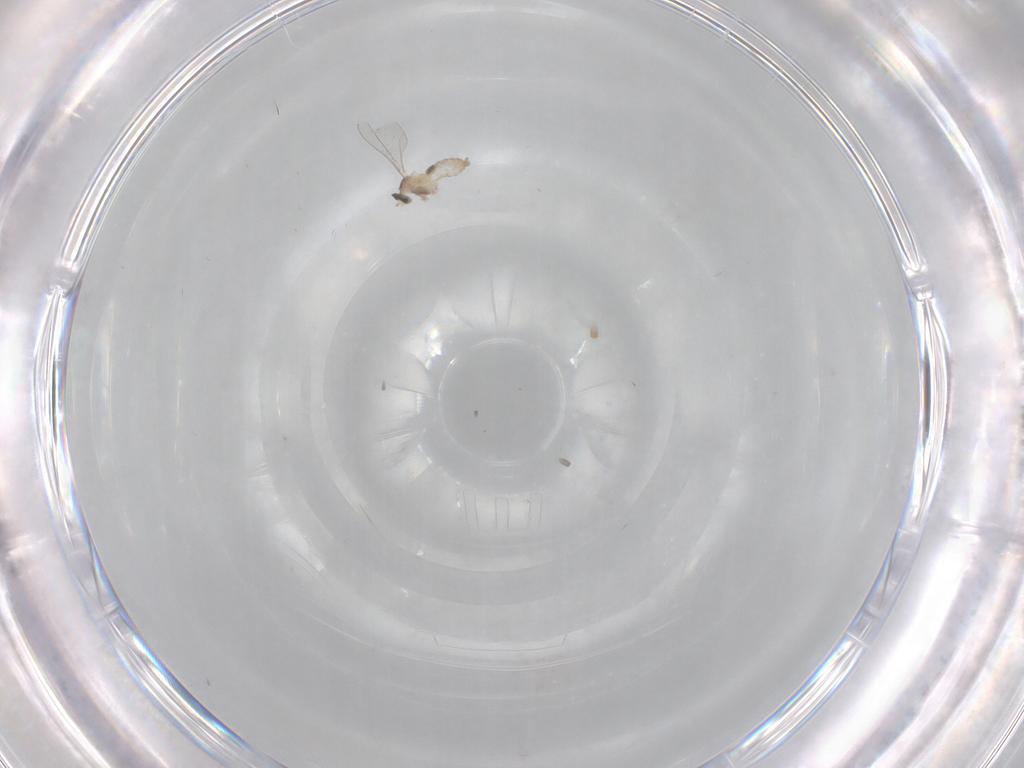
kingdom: Animalia
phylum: Arthropoda
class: Insecta
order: Diptera
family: Cecidomyiidae
